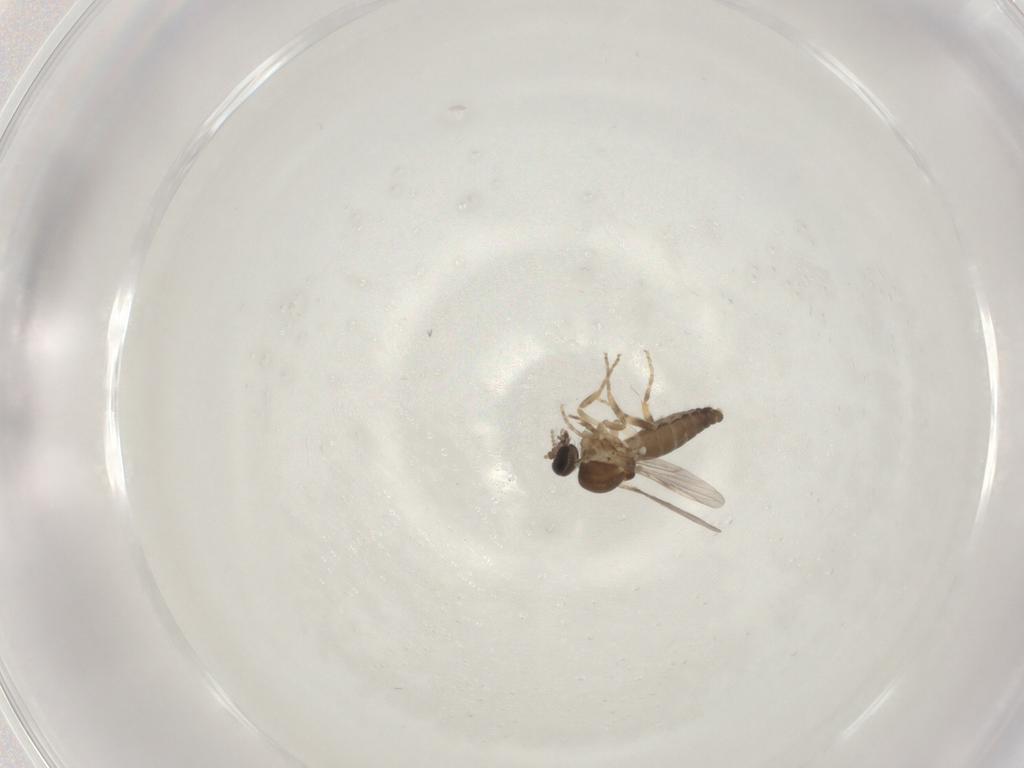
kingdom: Animalia
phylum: Arthropoda
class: Insecta
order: Diptera
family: Ceratopogonidae
